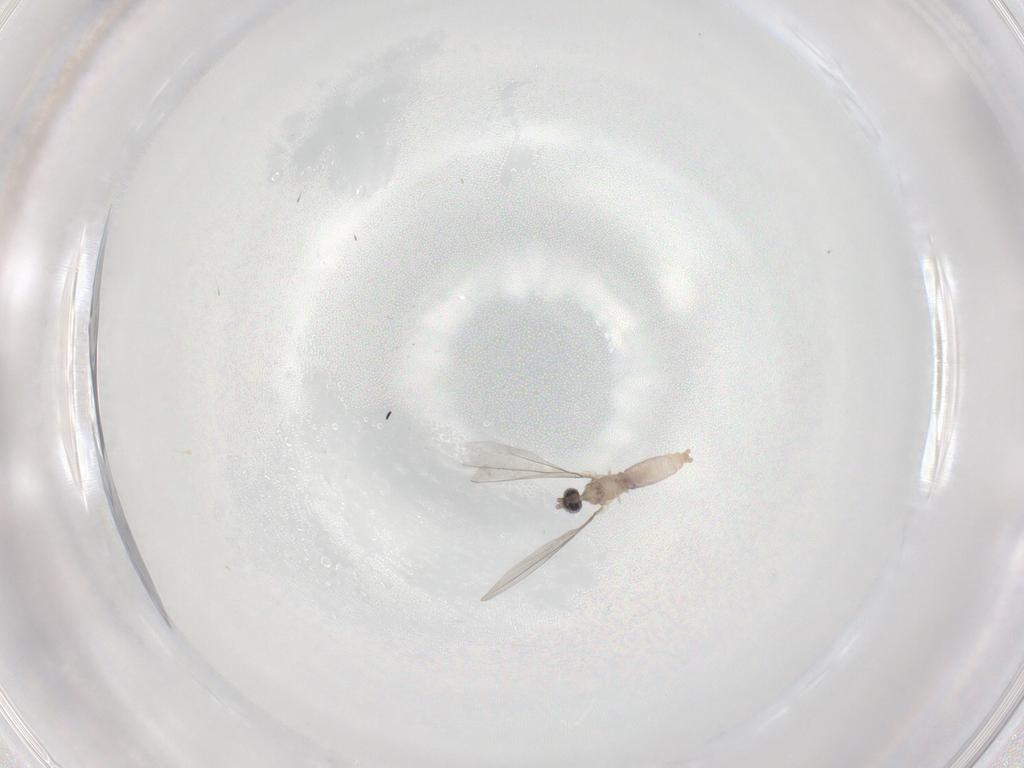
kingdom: Animalia
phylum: Arthropoda
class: Insecta
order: Diptera
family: Cecidomyiidae
